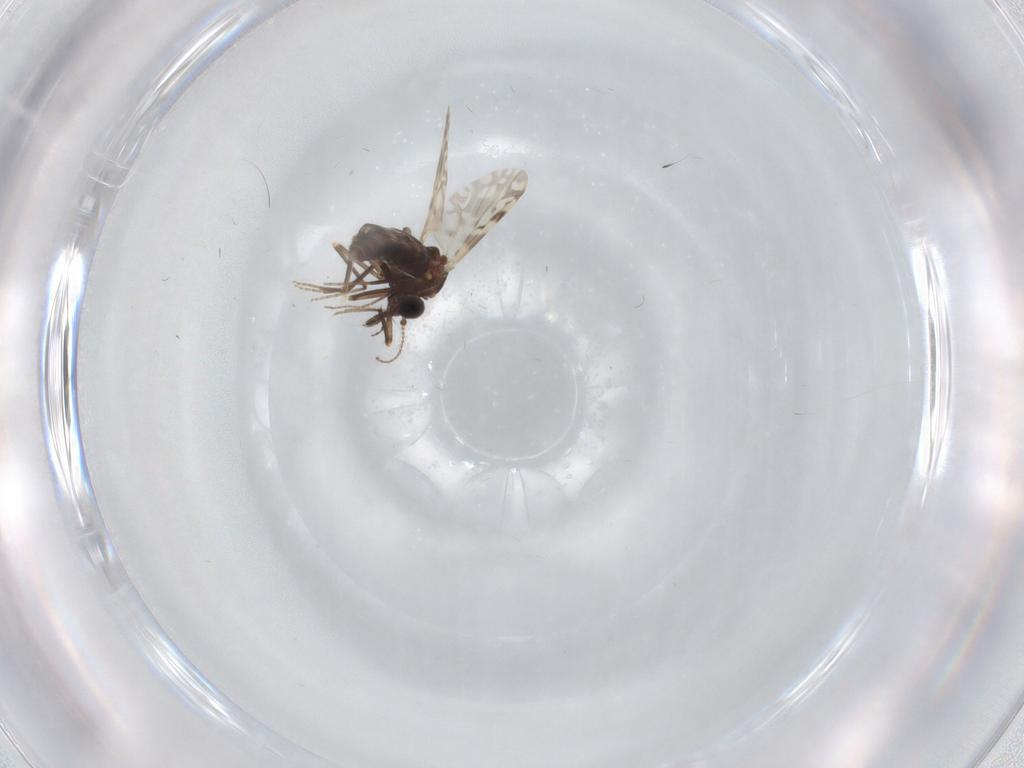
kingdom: Animalia
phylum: Arthropoda
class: Insecta
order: Diptera
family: Ceratopogonidae
